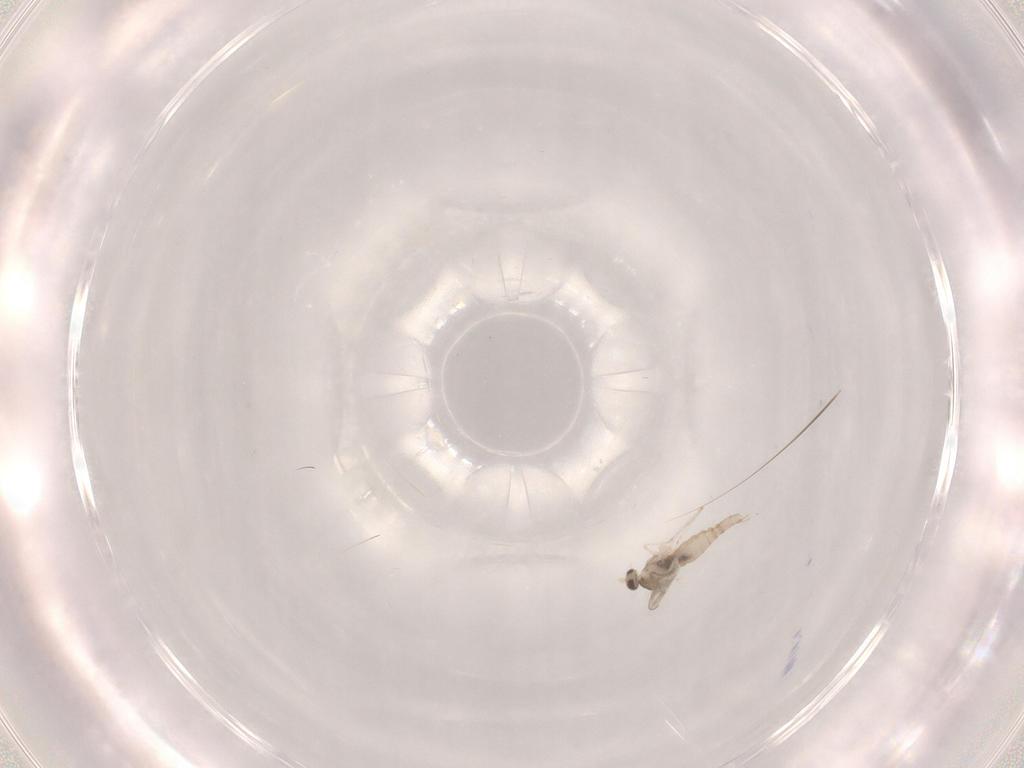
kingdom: Animalia
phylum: Arthropoda
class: Insecta
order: Diptera
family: Cecidomyiidae
